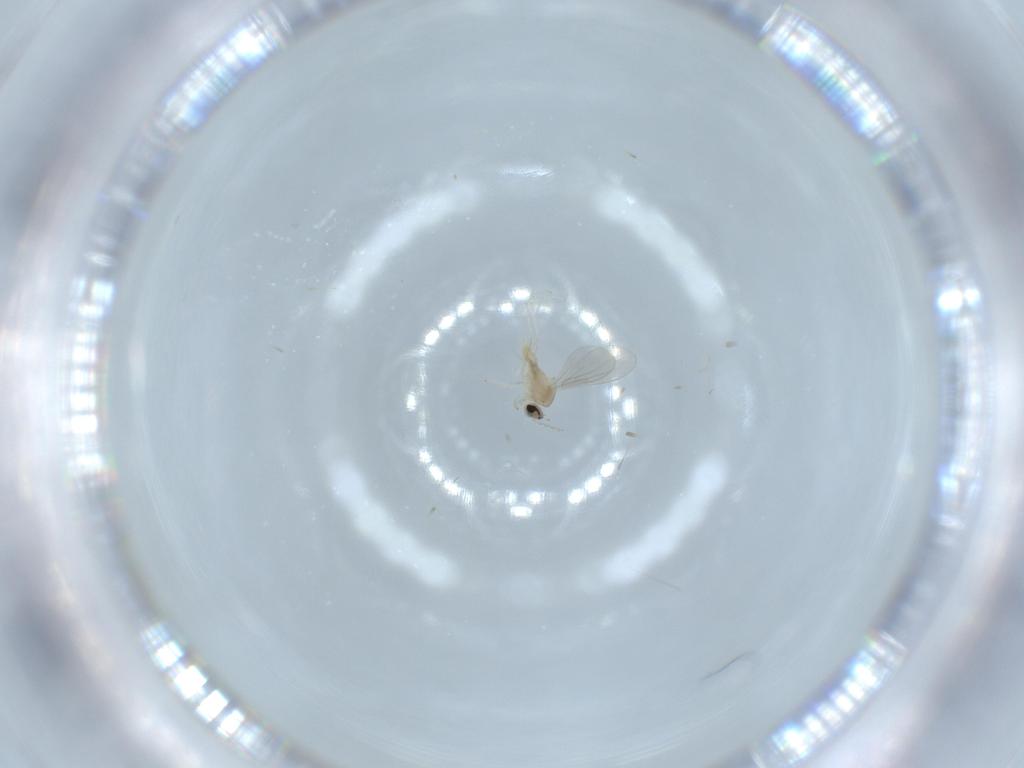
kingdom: Animalia
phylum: Arthropoda
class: Insecta
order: Diptera
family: Cecidomyiidae
